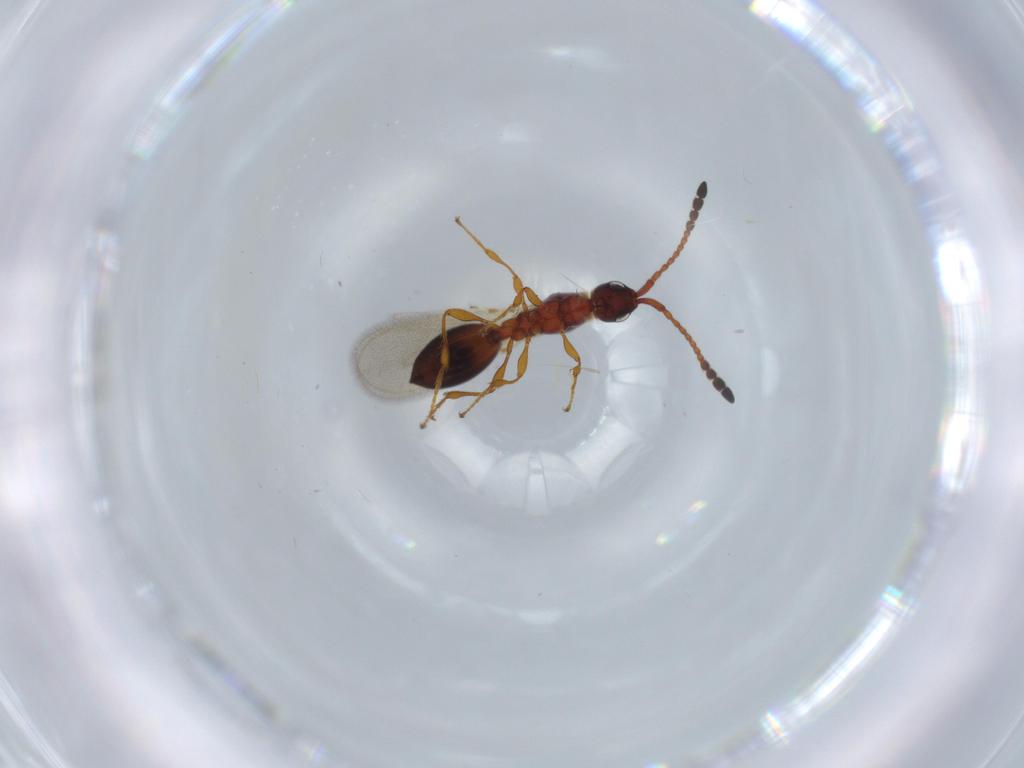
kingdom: Animalia
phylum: Arthropoda
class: Insecta
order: Hymenoptera
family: Diapriidae
